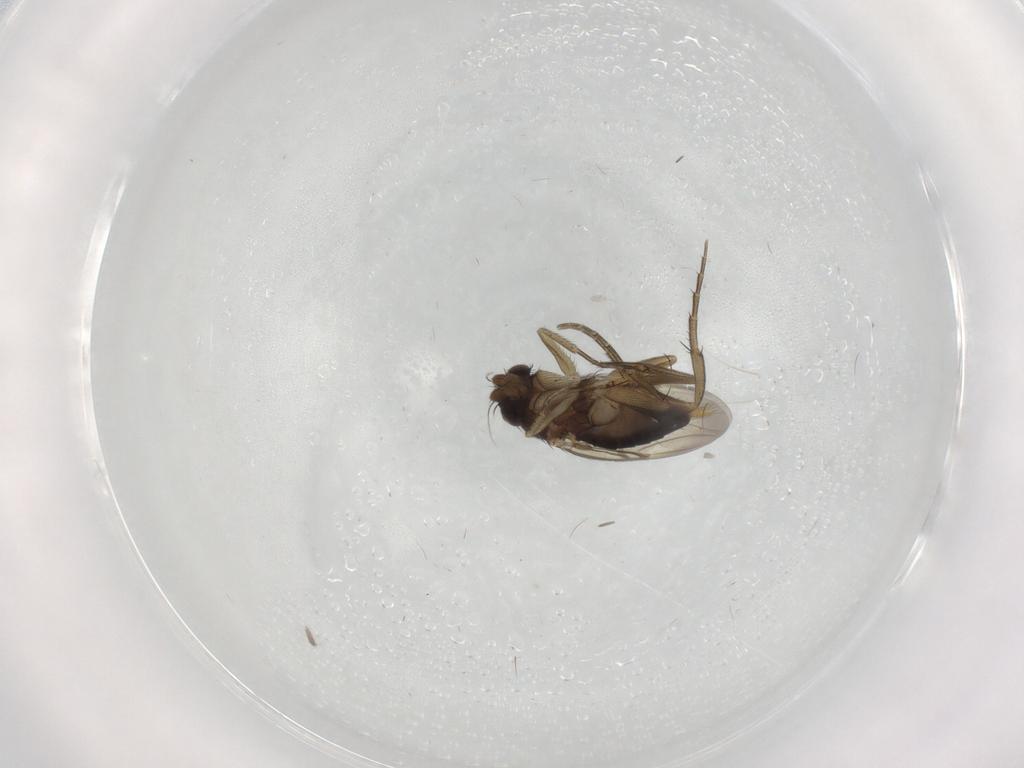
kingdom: Animalia
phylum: Arthropoda
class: Insecta
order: Diptera
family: Phoridae
